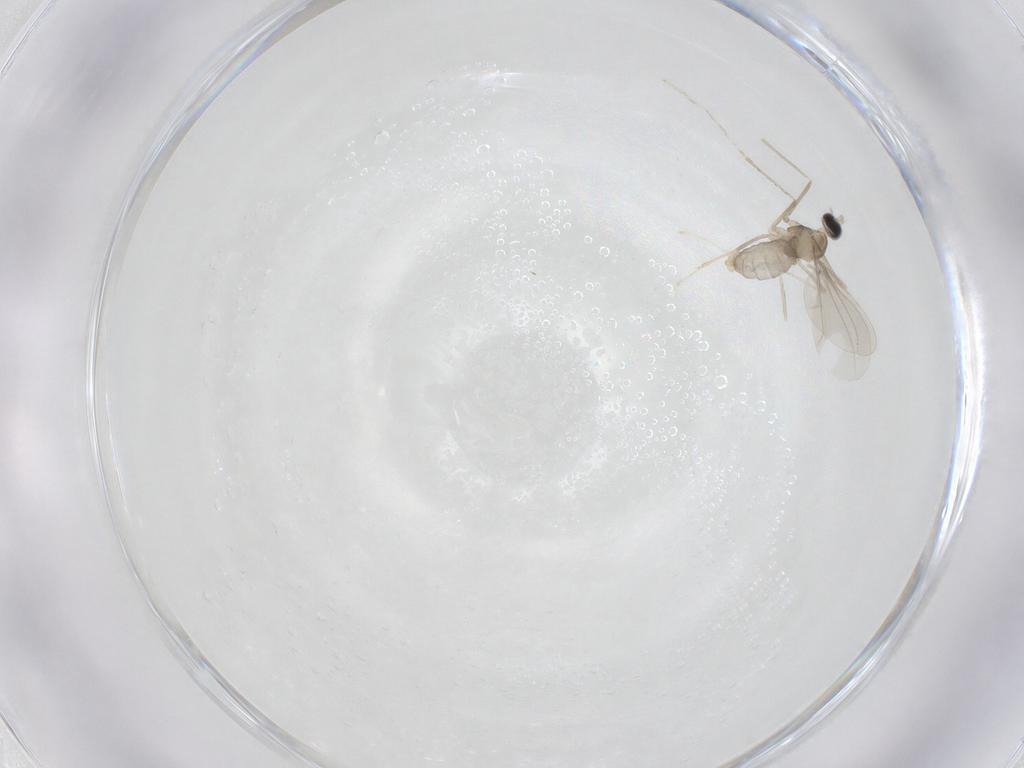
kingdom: Animalia
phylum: Arthropoda
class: Insecta
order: Diptera
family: Cecidomyiidae
